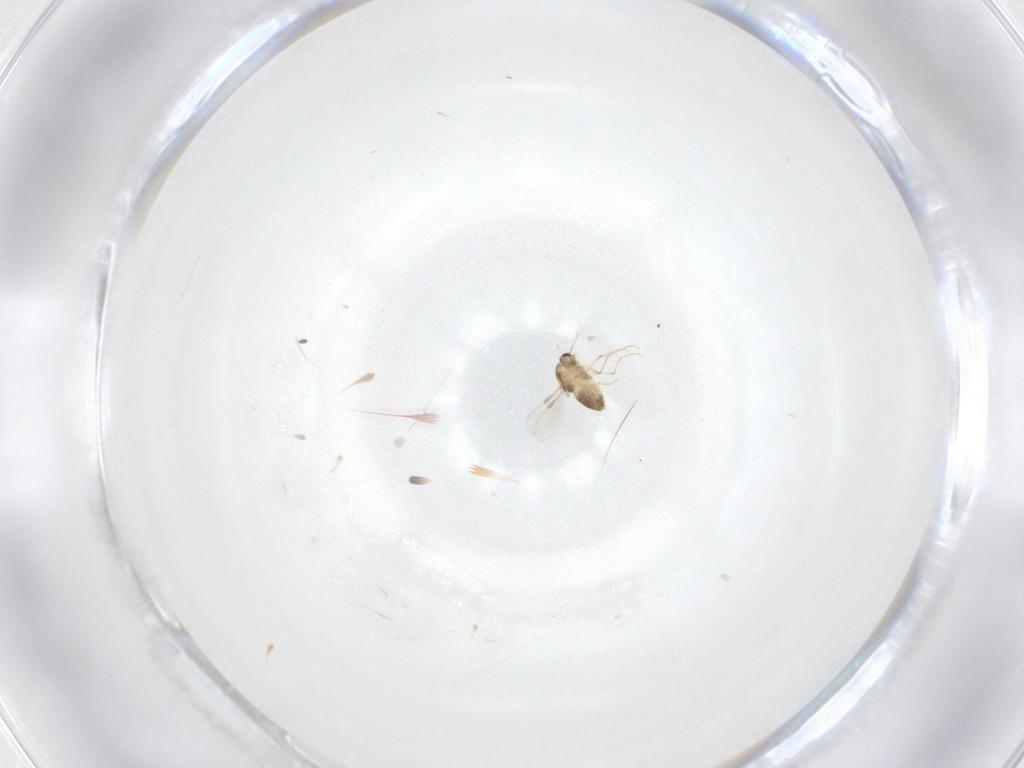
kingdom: Animalia
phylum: Arthropoda
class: Insecta
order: Diptera
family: Chironomidae
